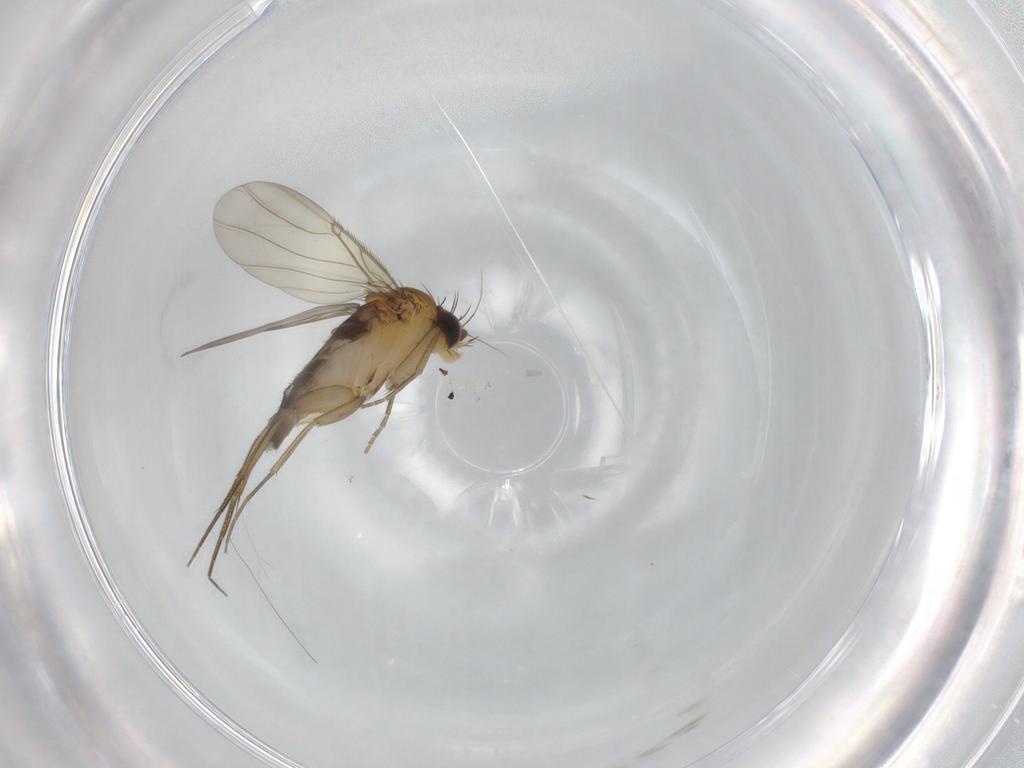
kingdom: Animalia
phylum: Arthropoda
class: Insecta
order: Diptera
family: Phoridae
